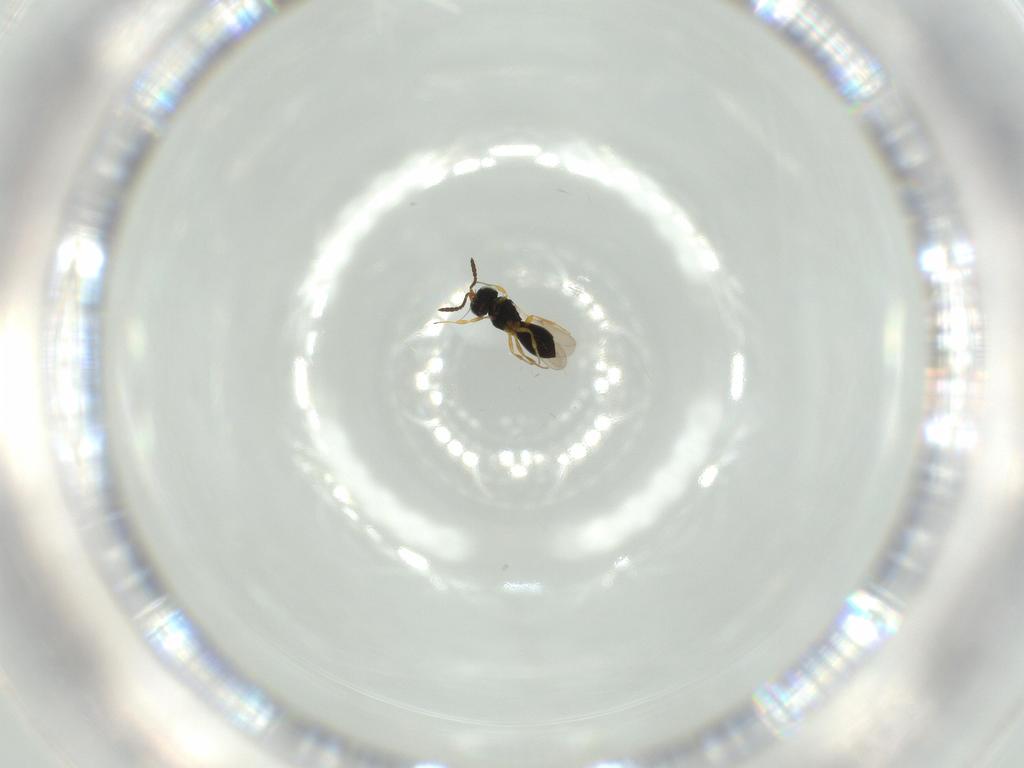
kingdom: Animalia
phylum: Arthropoda
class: Insecta
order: Hymenoptera
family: Scelionidae
